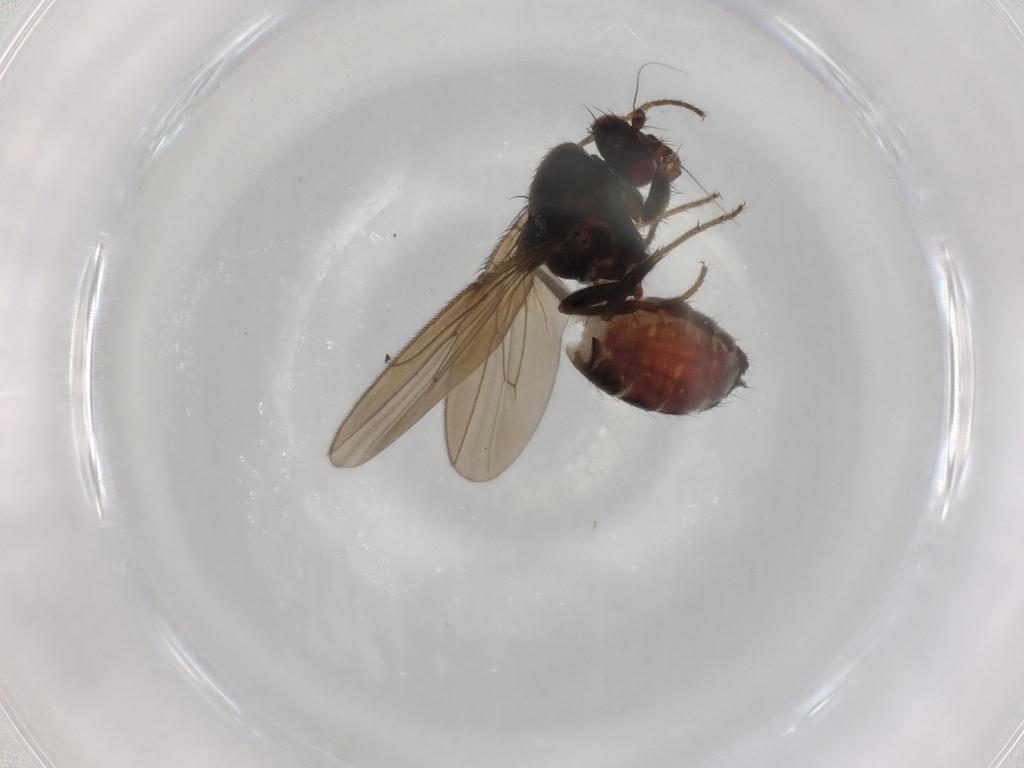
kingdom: Animalia
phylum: Arthropoda
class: Insecta
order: Diptera
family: Sphaeroceridae
